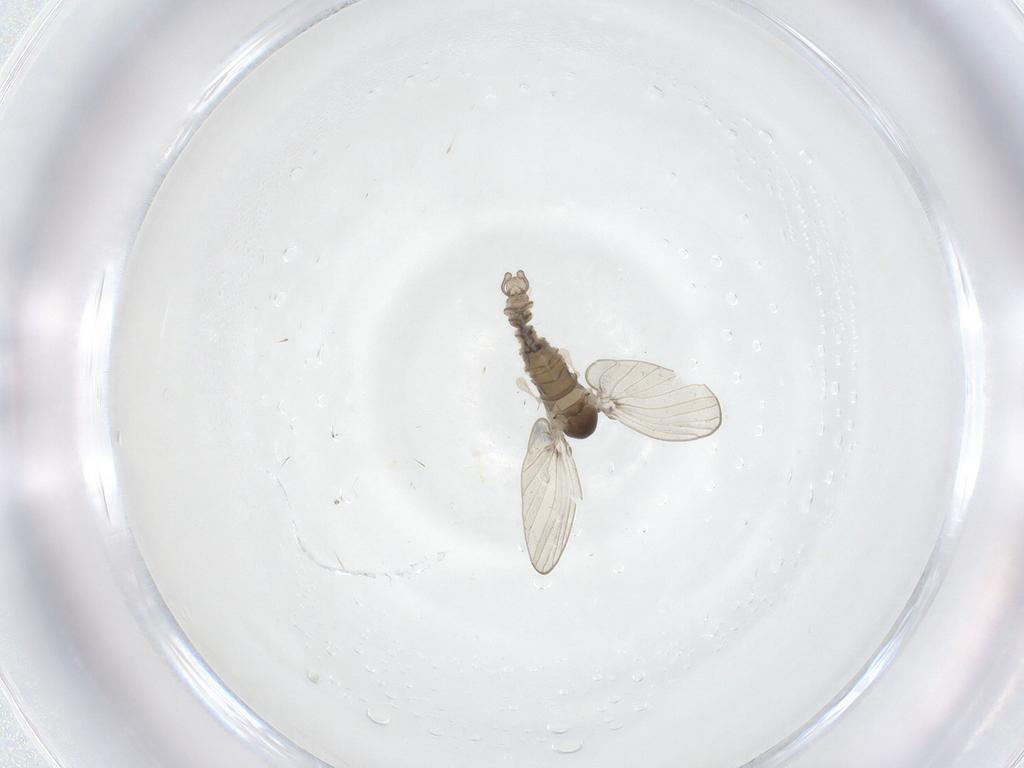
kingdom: Animalia
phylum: Arthropoda
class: Insecta
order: Diptera
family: Psychodidae
